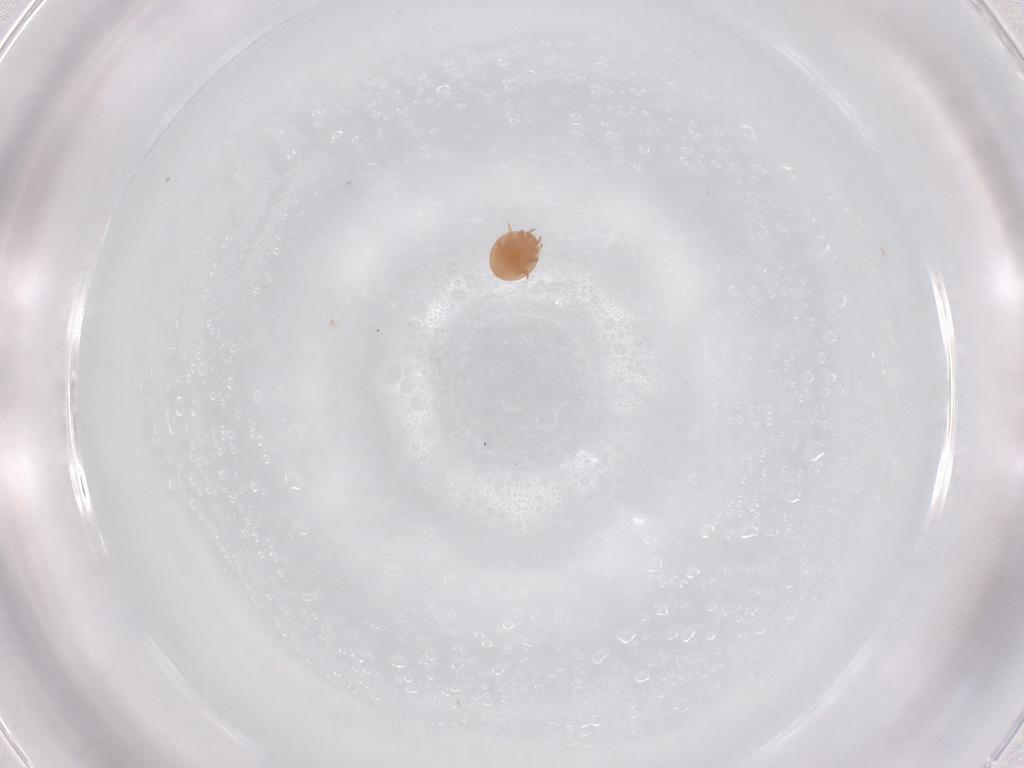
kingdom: Animalia
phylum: Arthropoda
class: Arachnida
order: Mesostigmata
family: Trematuridae
